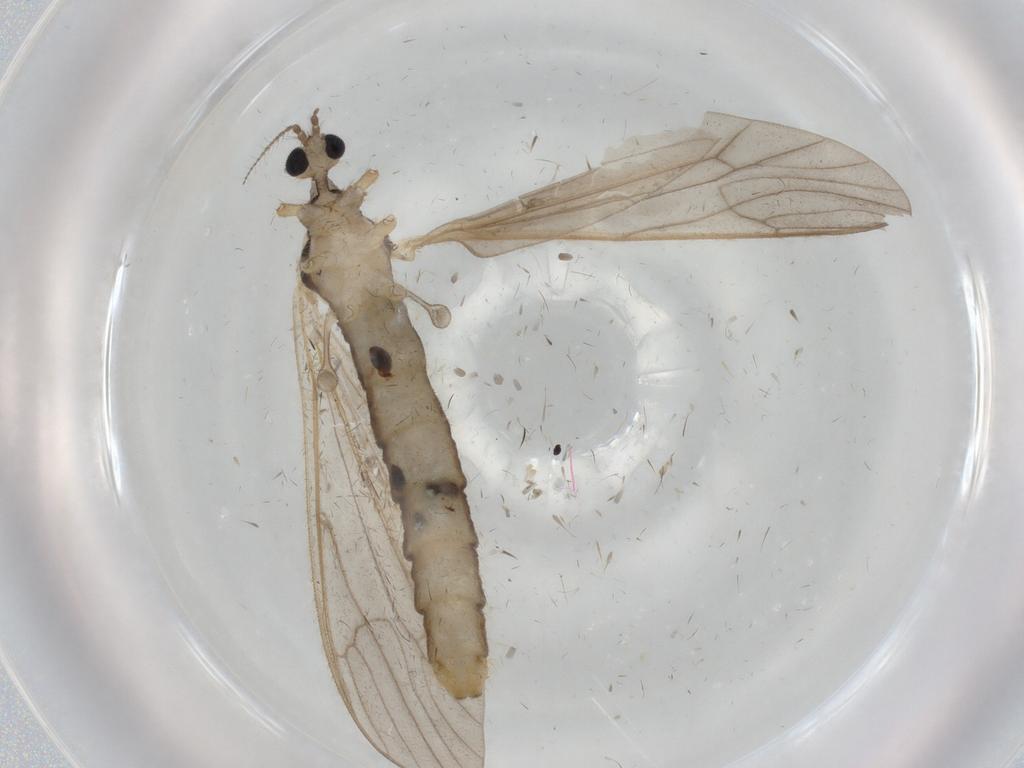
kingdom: Animalia
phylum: Arthropoda
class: Insecta
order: Diptera
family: Limoniidae
